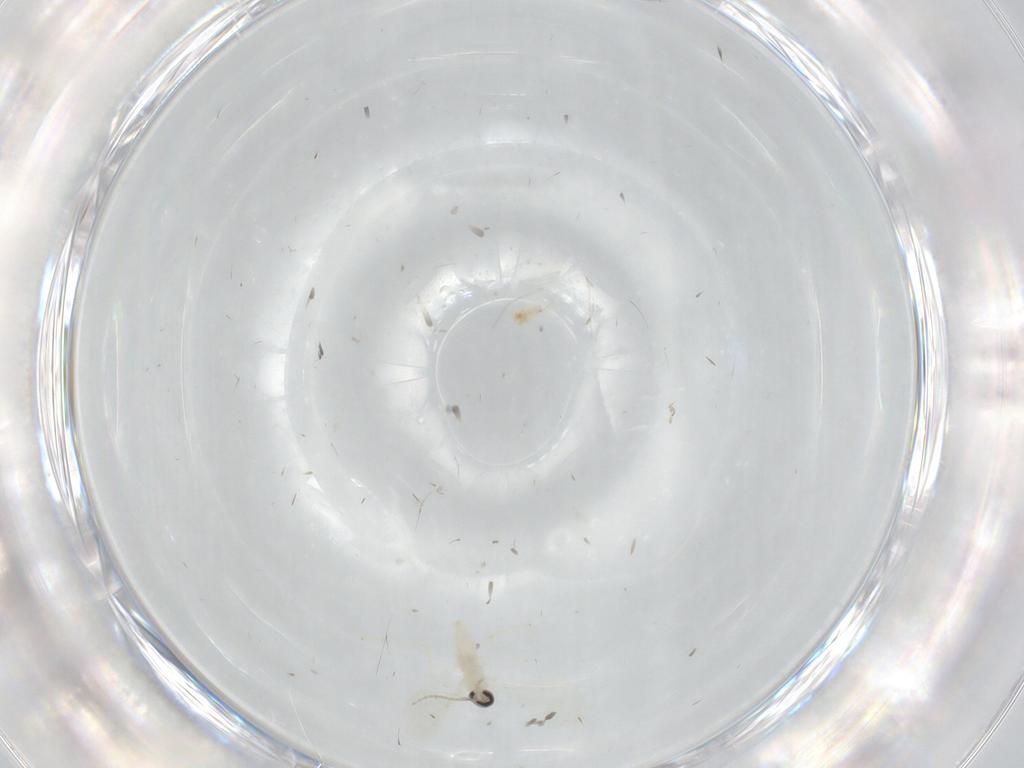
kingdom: Animalia
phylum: Arthropoda
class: Insecta
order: Diptera
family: Cecidomyiidae
